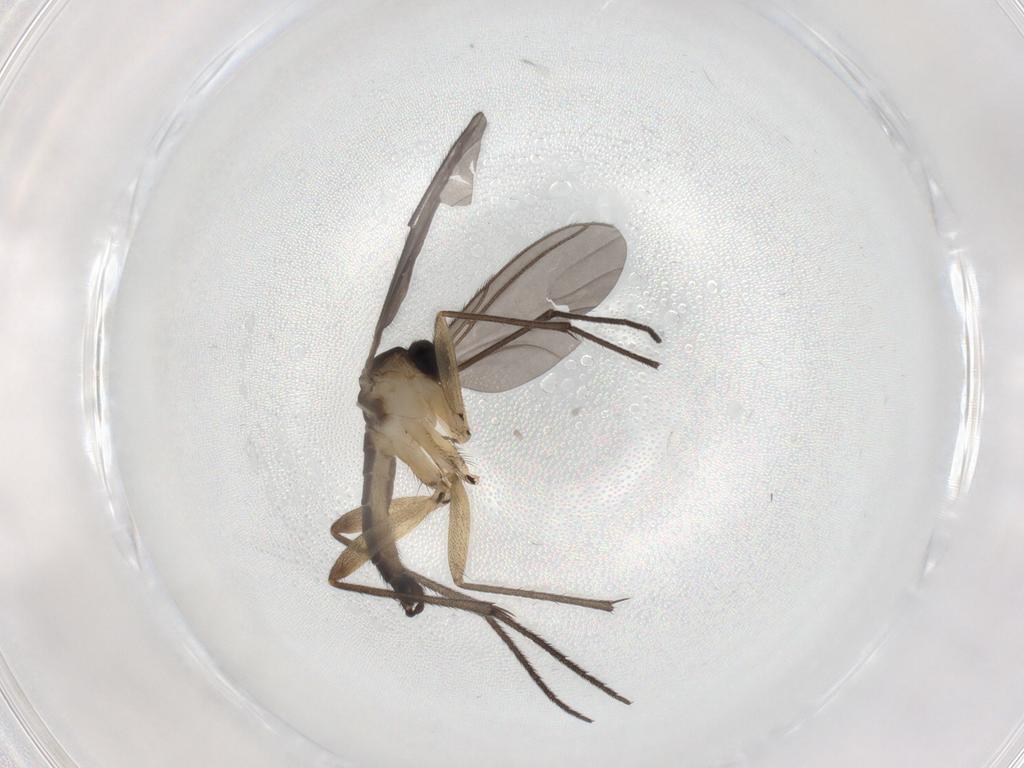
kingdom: Animalia
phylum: Arthropoda
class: Insecta
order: Diptera
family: Sciaridae
